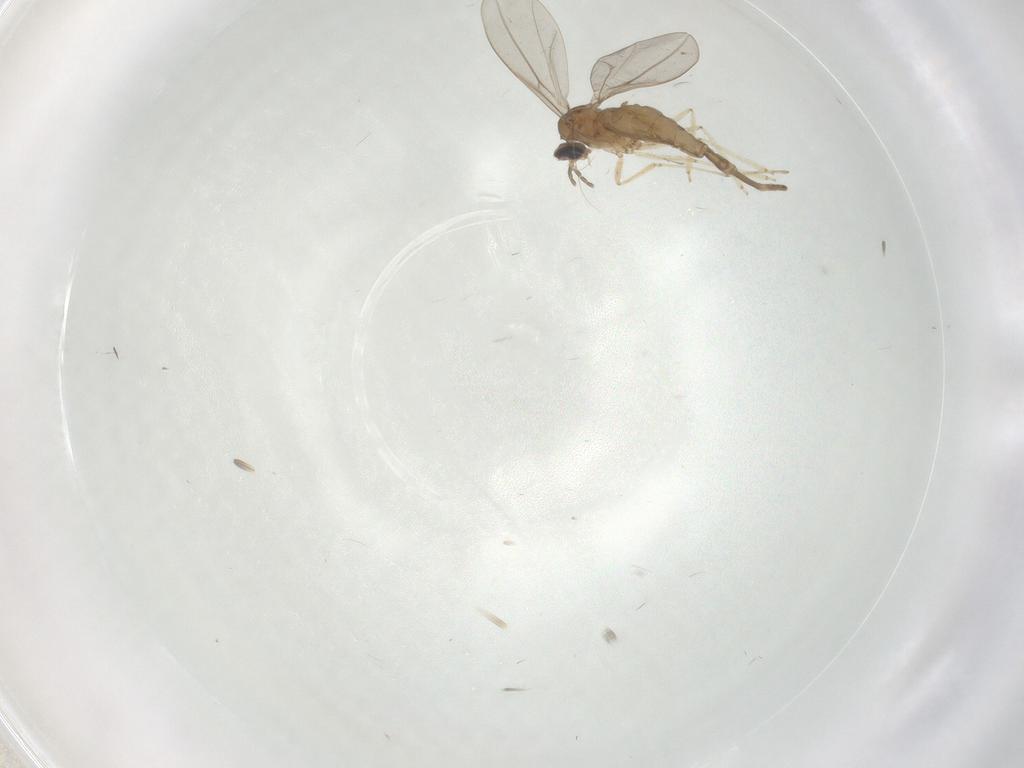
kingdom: Animalia
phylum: Arthropoda
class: Insecta
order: Diptera
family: Cecidomyiidae
